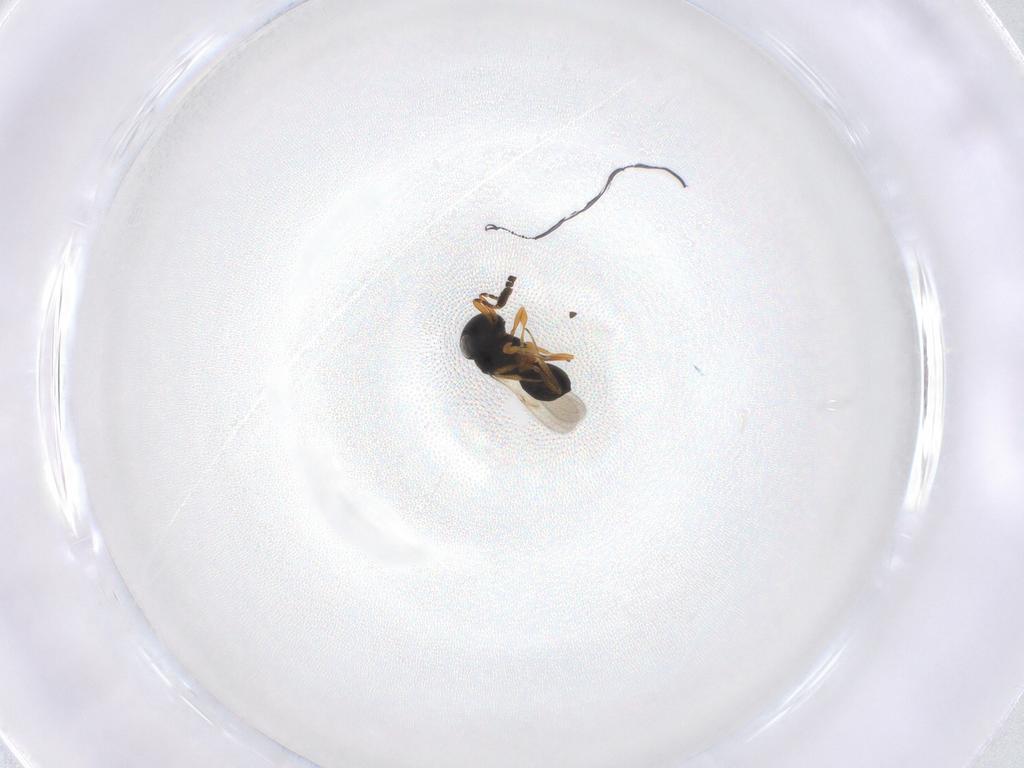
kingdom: Animalia
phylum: Arthropoda
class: Insecta
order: Hymenoptera
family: Scelionidae
